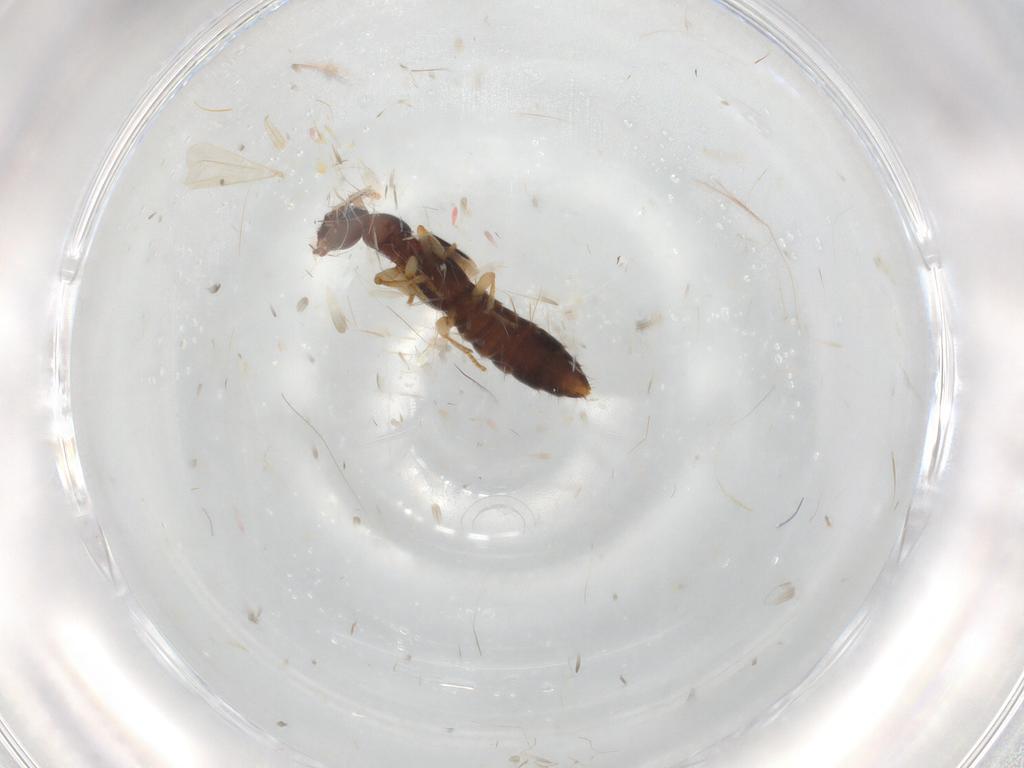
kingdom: Animalia
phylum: Arthropoda
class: Insecta
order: Coleoptera
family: Staphylinidae
